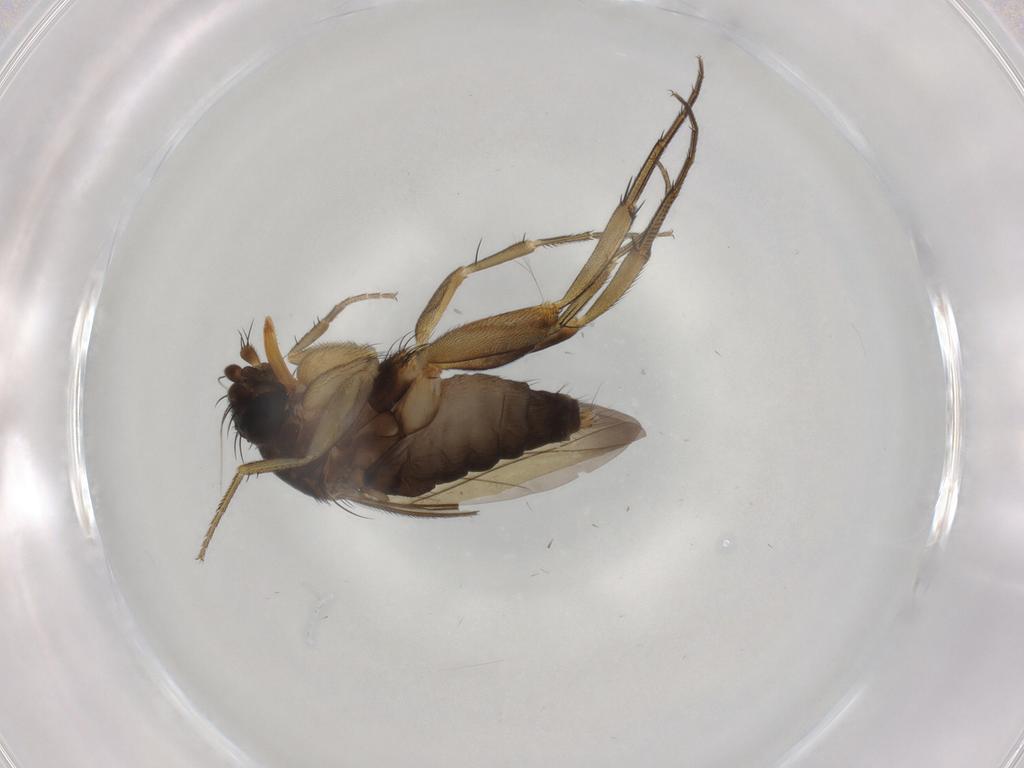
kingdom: Animalia
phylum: Arthropoda
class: Insecta
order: Diptera
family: Phoridae
